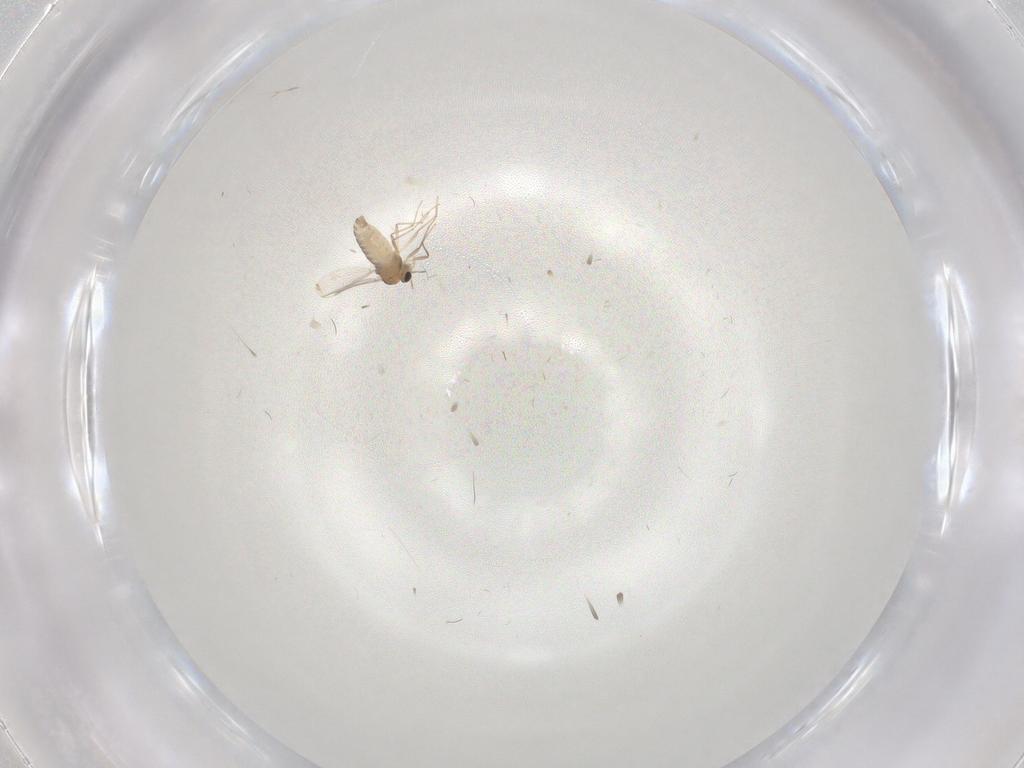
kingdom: Animalia
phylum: Arthropoda
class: Insecta
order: Diptera
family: Chironomidae
